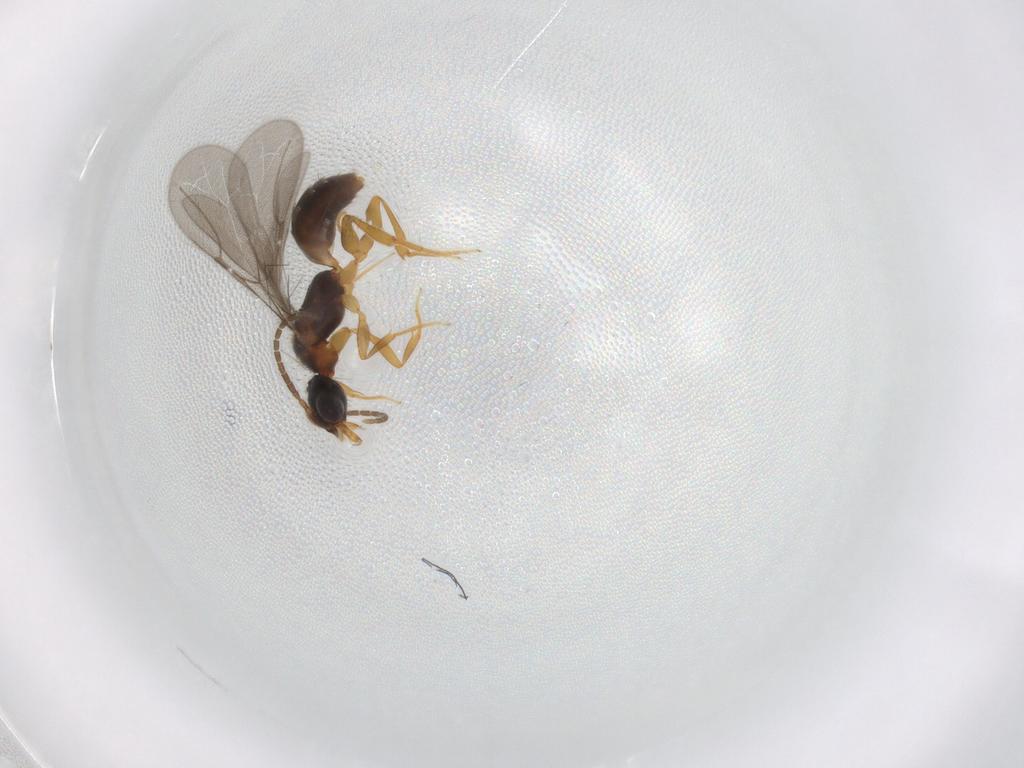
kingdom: Animalia
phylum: Arthropoda
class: Insecta
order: Hymenoptera
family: Bethylidae
